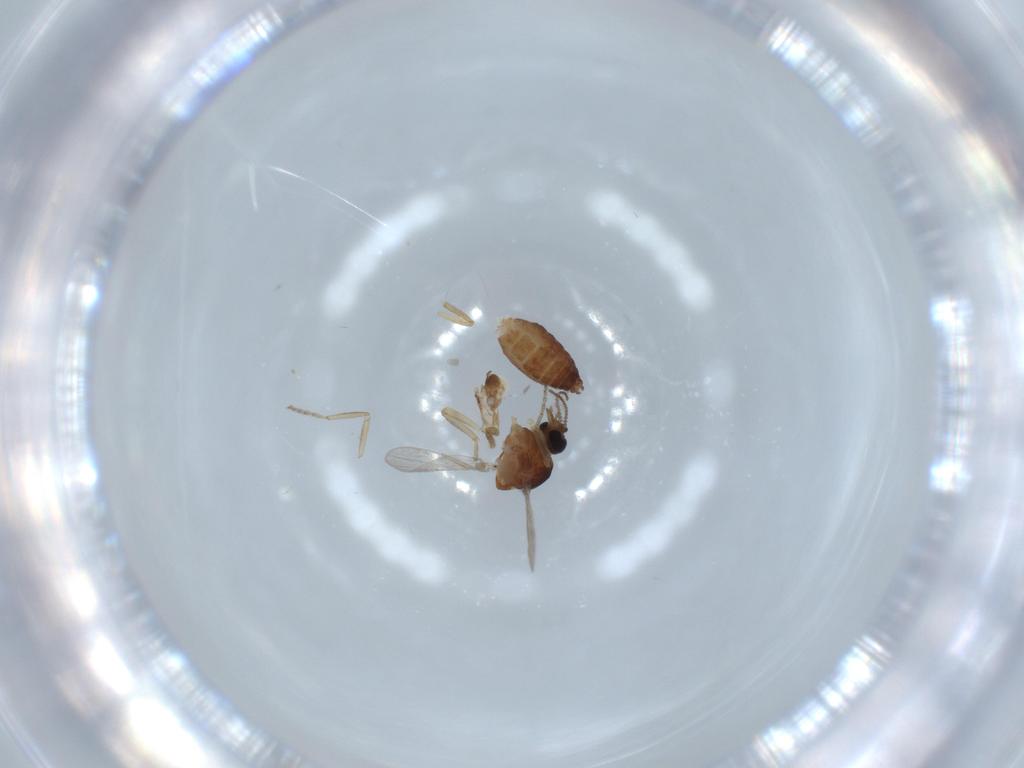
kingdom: Animalia
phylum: Arthropoda
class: Insecta
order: Diptera
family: Ceratopogonidae
